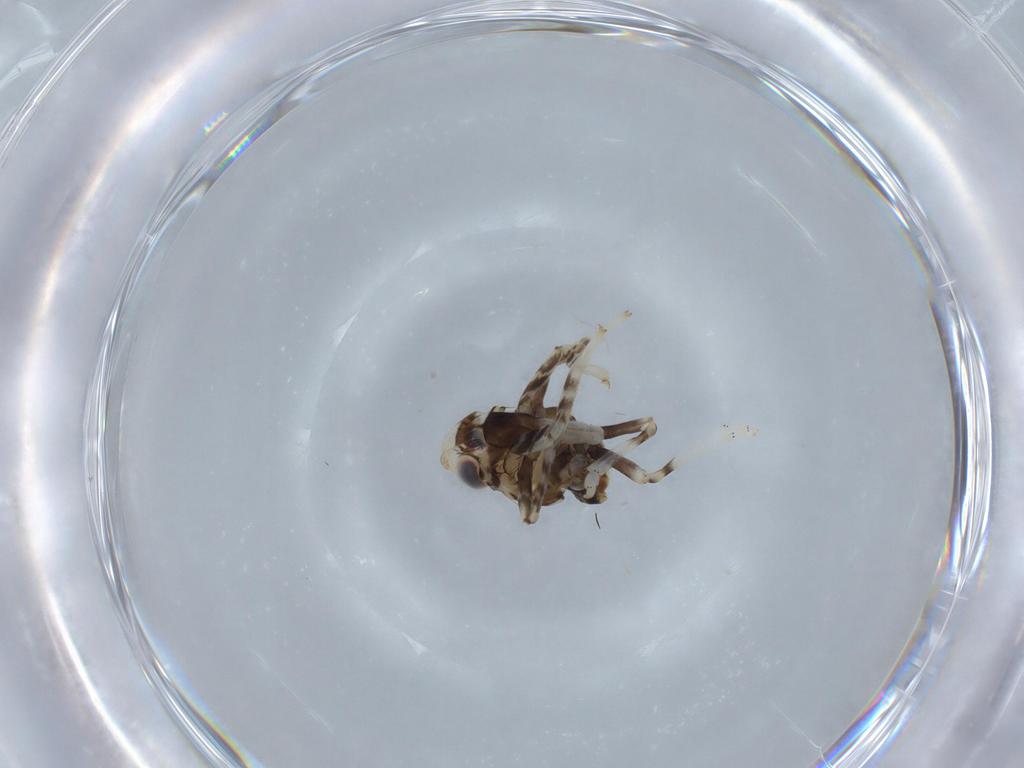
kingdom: Animalia
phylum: Arthropoda
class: Insecta
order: Hemiptera
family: Fulgoroidea_incertae_sedis
